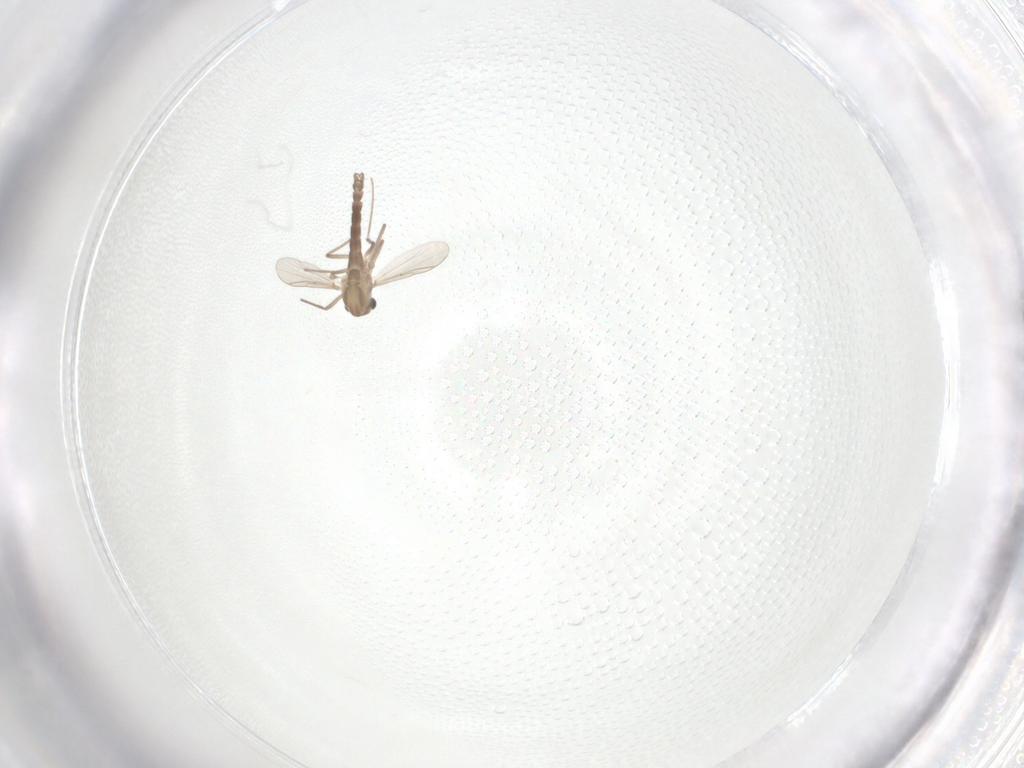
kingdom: Animalia
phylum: Arthropoda
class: Insecta
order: Diptera
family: Chironomidae
